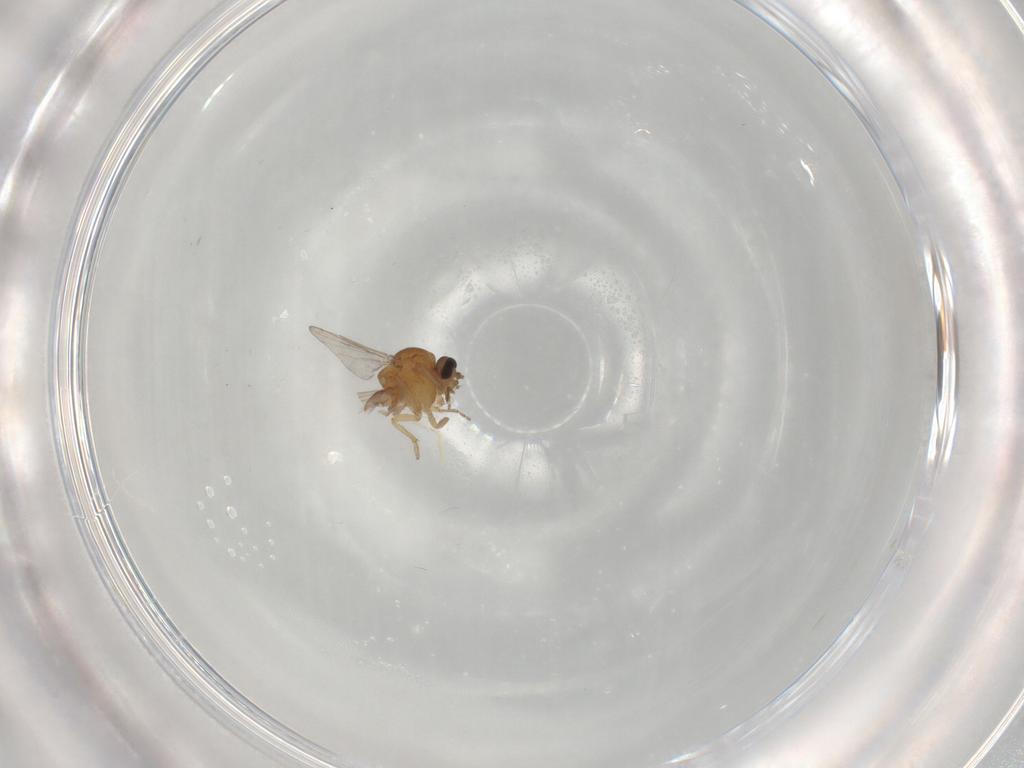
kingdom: Animalia
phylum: Arthropoda
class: Insecta
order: Diptera
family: Ceratopogonidae
